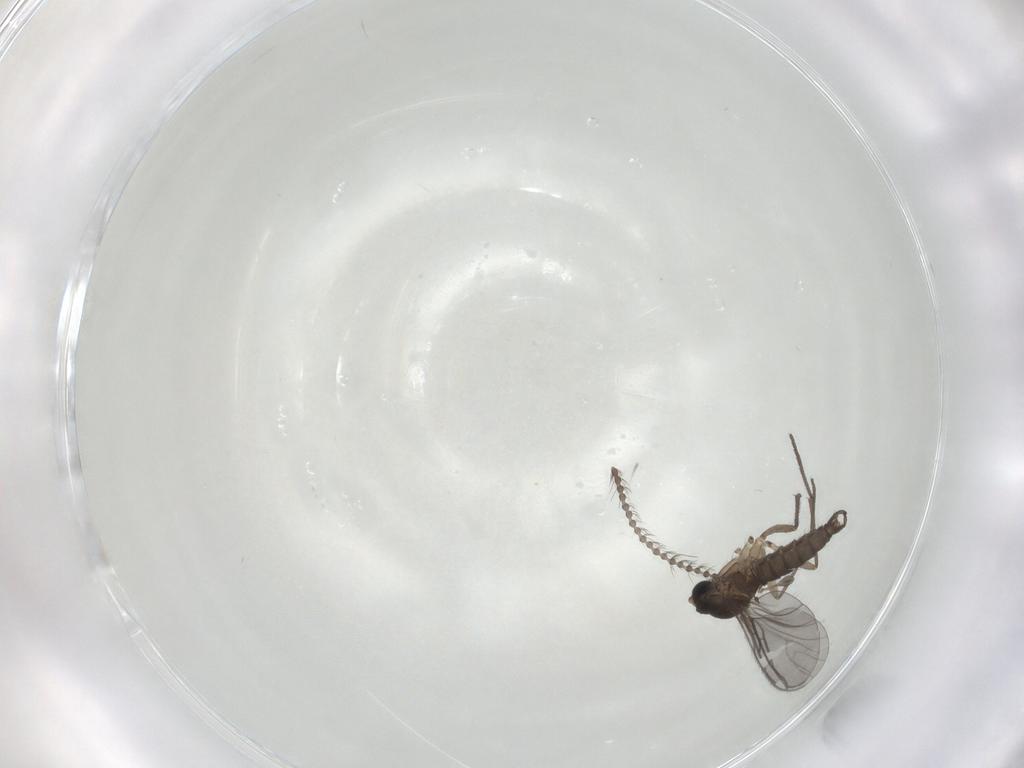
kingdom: Animalia
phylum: Arthropoda
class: Insecta
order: Diptera
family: Sciaridae
